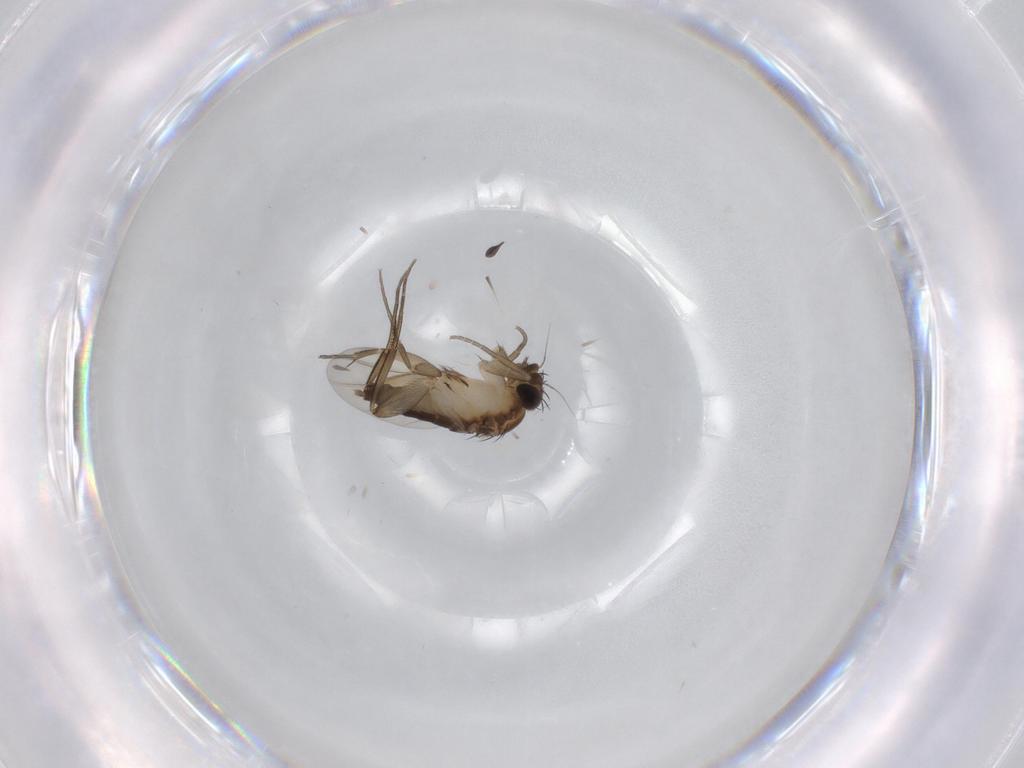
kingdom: Animalia
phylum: Arthropoda
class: Insecta
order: Diptera
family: Phoridae
